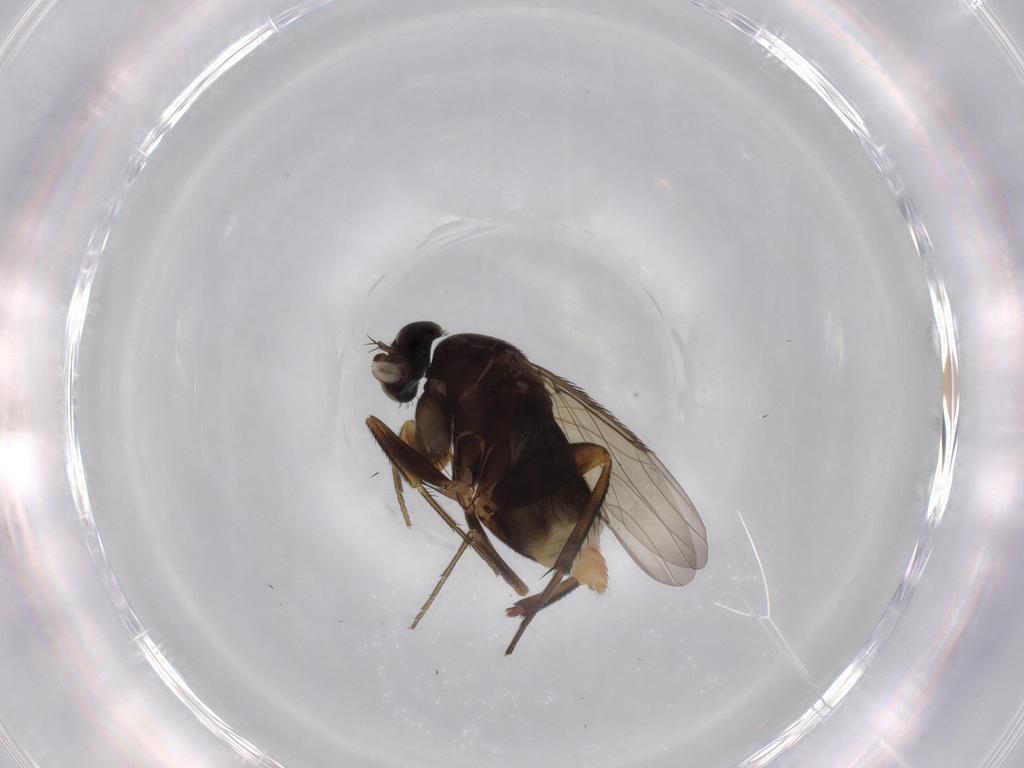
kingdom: Animalia
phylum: Arthropoda
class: Insecta
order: Diptera
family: Phoridae
